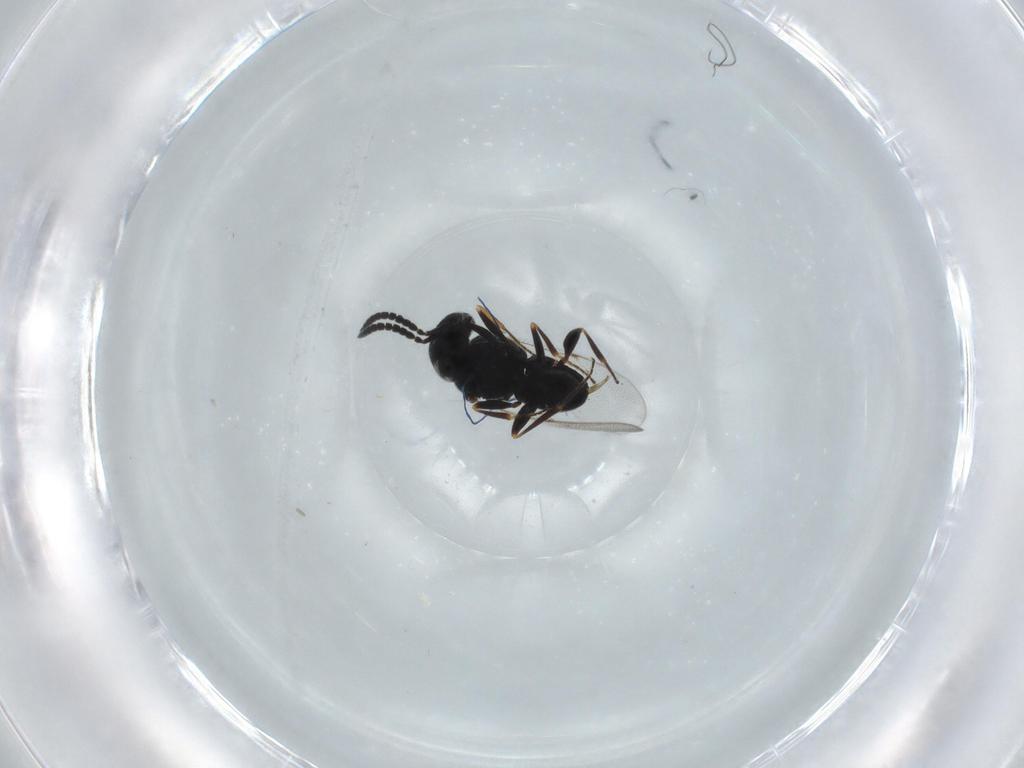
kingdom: Animalia
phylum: Arthropoda
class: Insecta
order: Hymenoptera
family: Scelionidae
